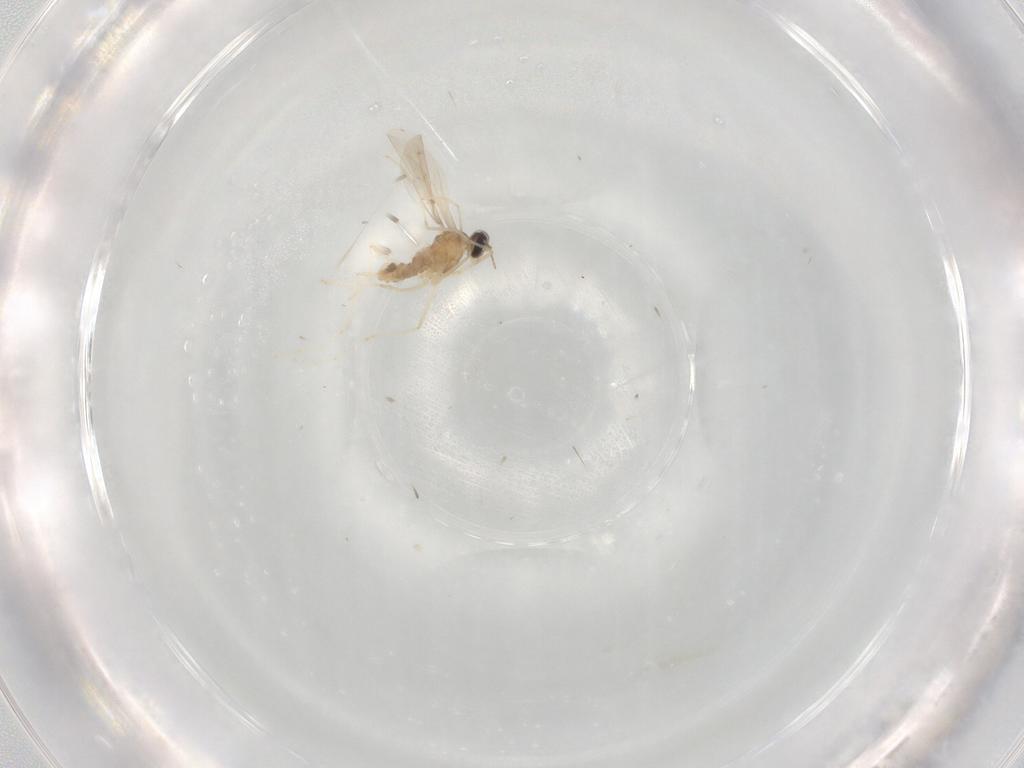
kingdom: Animalia
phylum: Arthropoda
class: Insecta
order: Diptera
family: Cecidomyiidae
